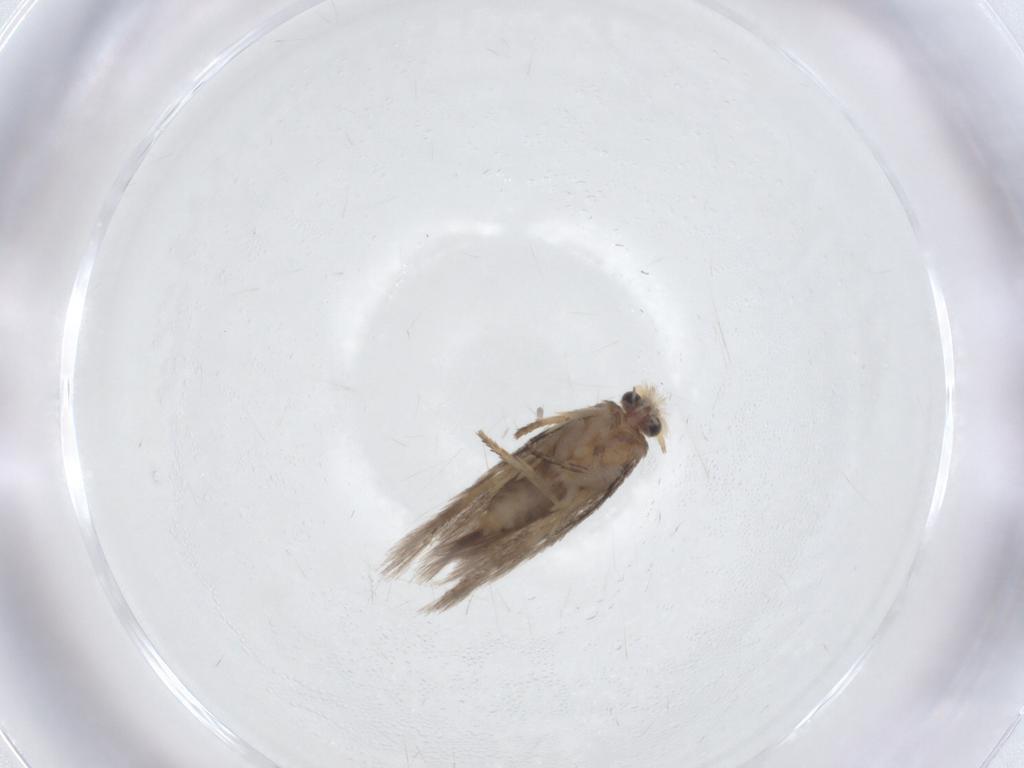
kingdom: Animalia
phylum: Arthropoda
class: Insecta
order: Lepidoptera
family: Nepticulidae
